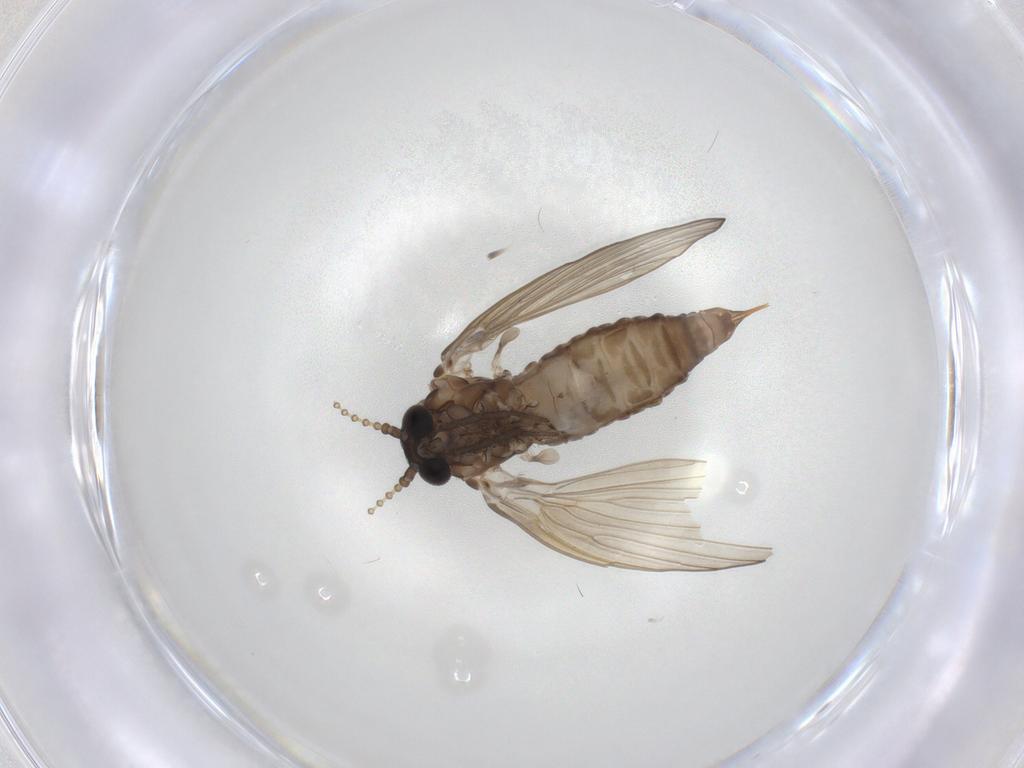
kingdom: Animalia
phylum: Arthropoda
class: Insecta
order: Diptera
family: Psychodidae
